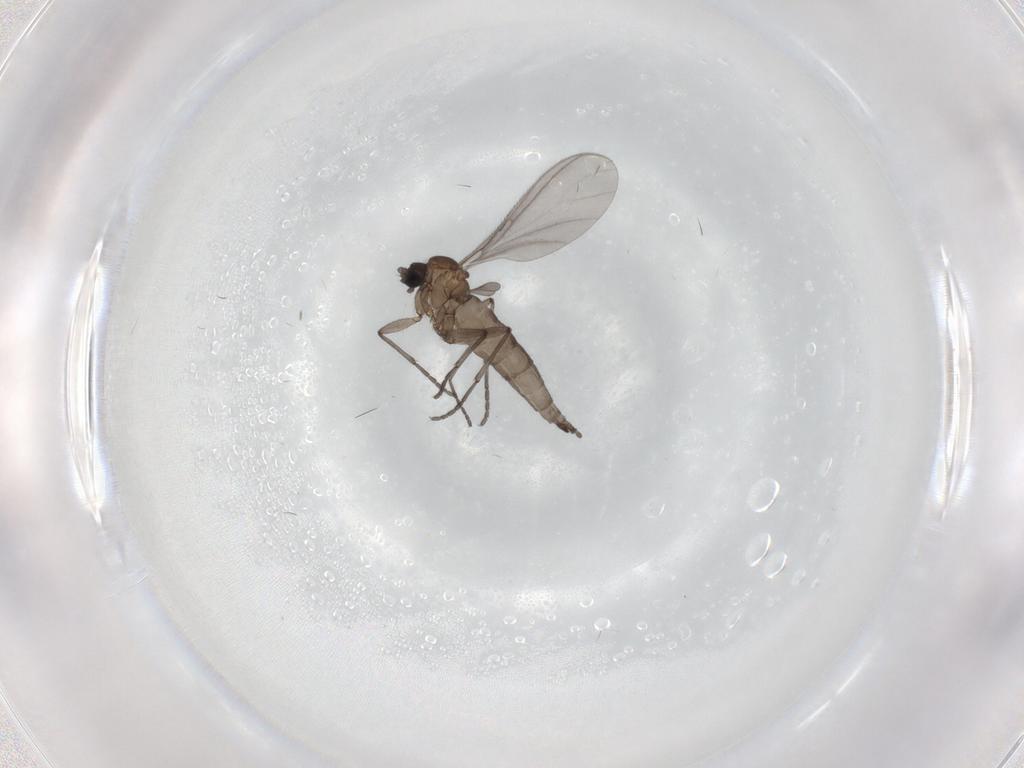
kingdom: Animalia
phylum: Arthropoda
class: Insecta
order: Diptera
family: Sciaridae
